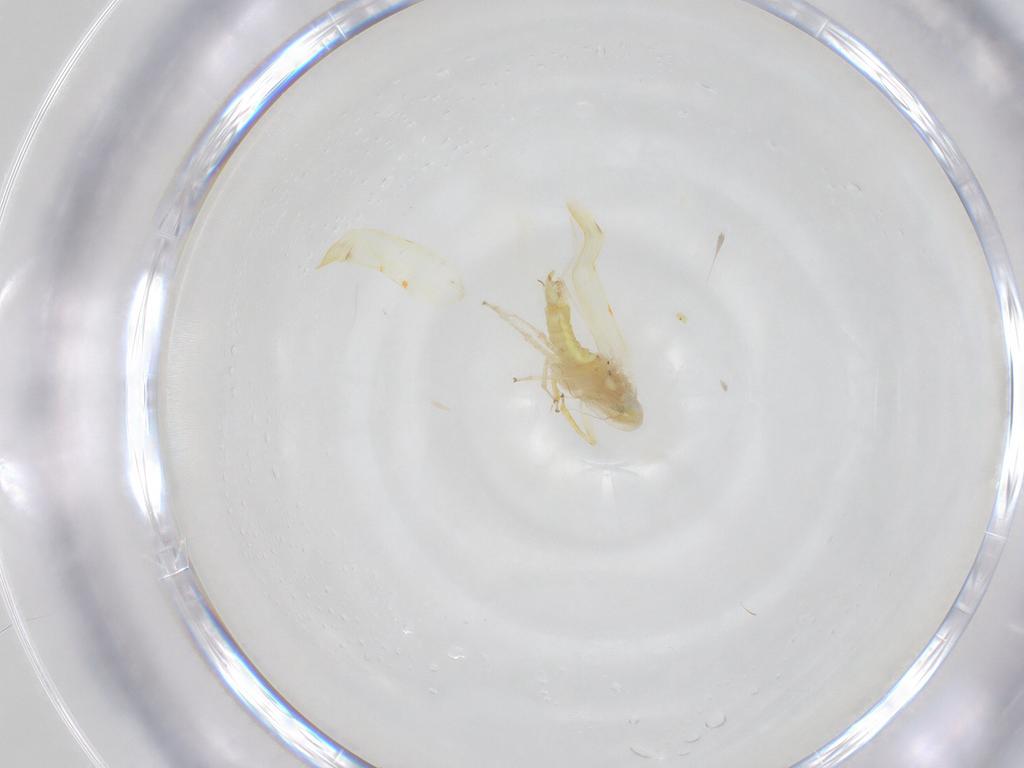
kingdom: Animalia
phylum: Arthropoda
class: Insecta
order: Hemiptera
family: Cicadellidae
